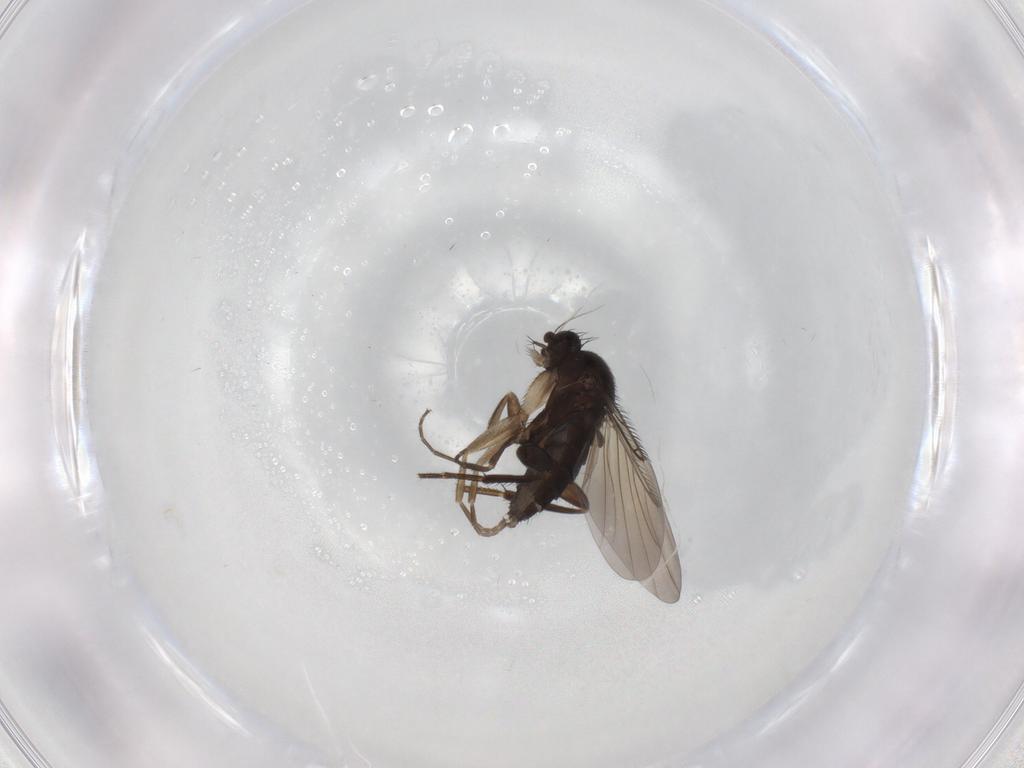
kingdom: Animalia
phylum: Arthropoda
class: Insecta
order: Diptera
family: Phoridae
